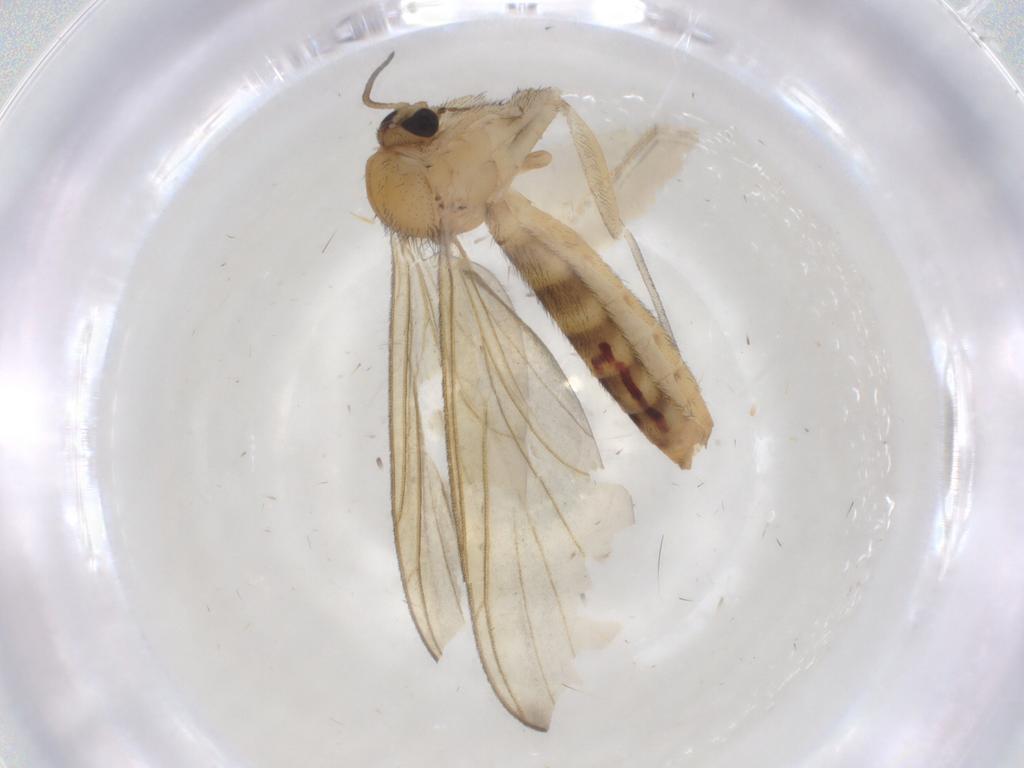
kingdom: Animalia
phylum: Arthropoda
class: Insecta
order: Diptera
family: Keroplatidae
